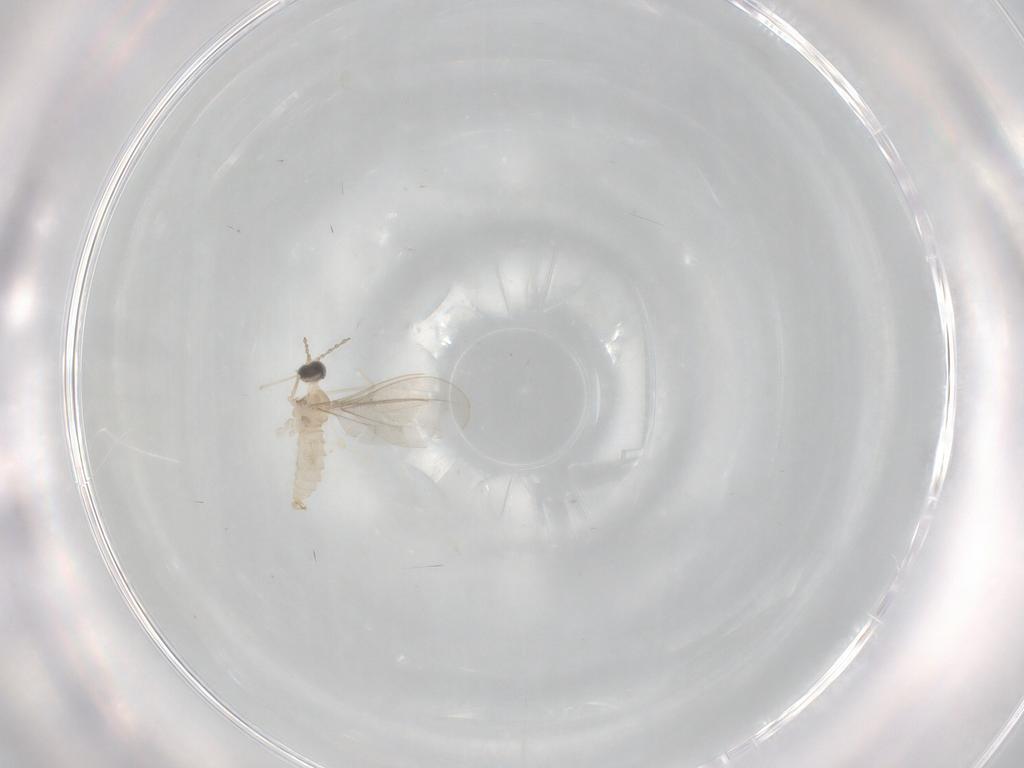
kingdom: Animalia
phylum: Arthropoda
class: Insecta
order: Diptera
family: Cecidomyiidae
